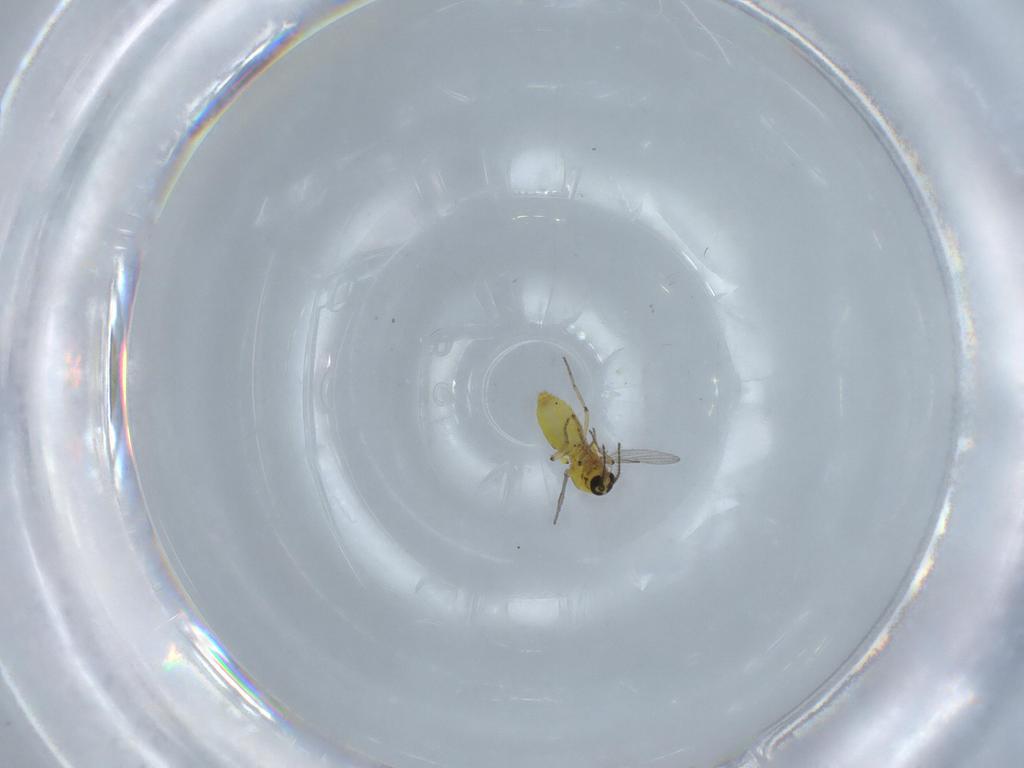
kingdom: Animalia
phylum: Arthropoda
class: Insecta
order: Diptera
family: Ceratopogonidae
